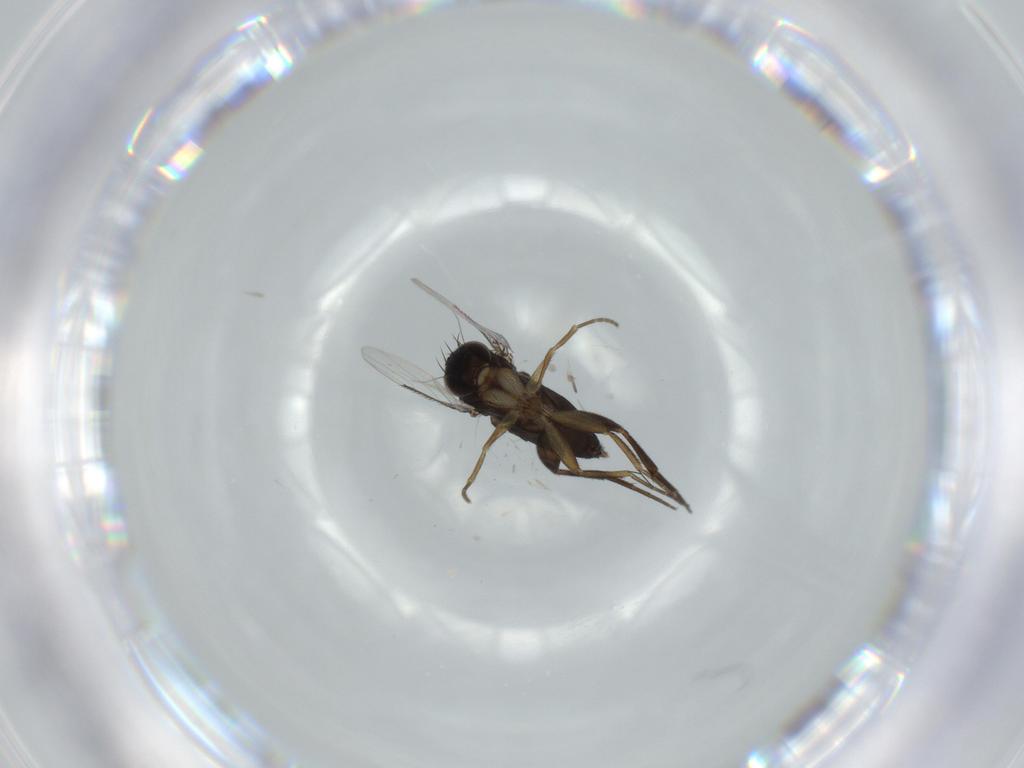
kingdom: Animalia
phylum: Arthropoda
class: Insecta
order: Diptera
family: Phoridae
